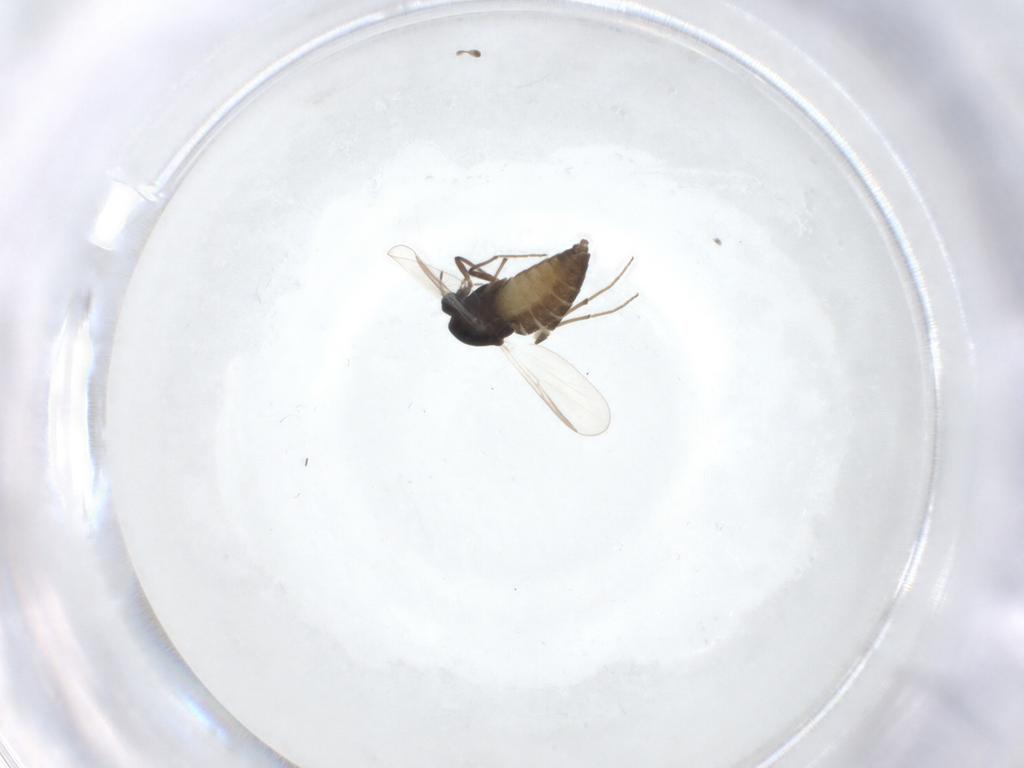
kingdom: Animalia
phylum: Arthropoda
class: Insecta
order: Diptera
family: Chironomidae
